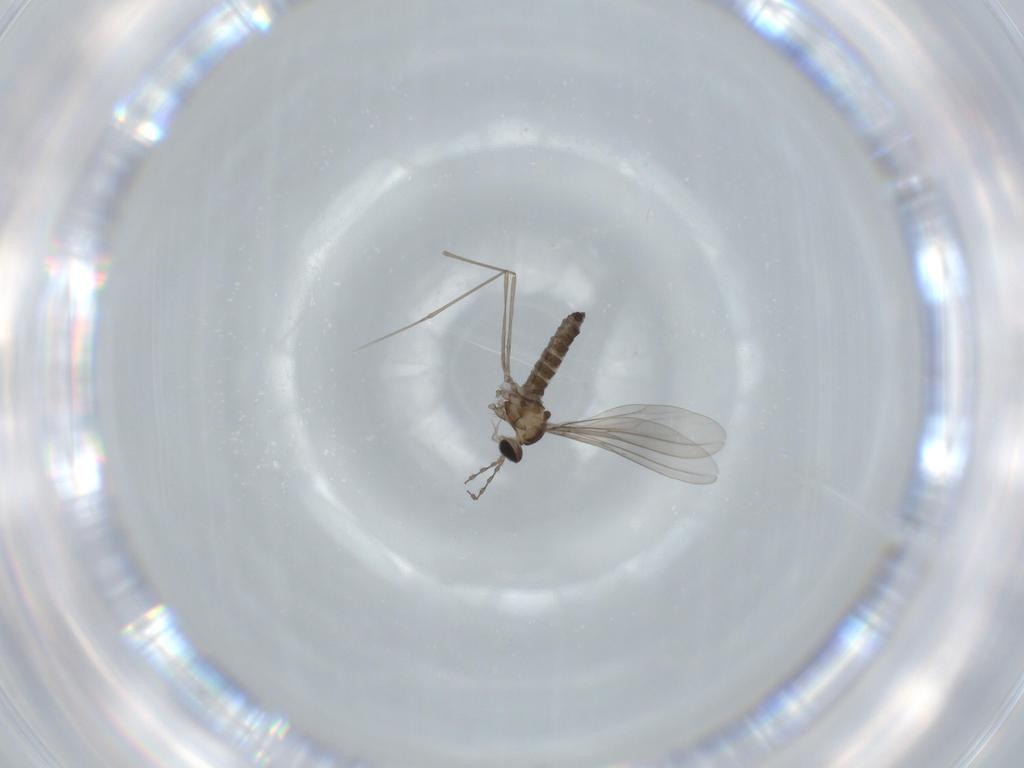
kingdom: Animalia
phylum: Arthropoda
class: Insecta
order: Diptera
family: Cecidomyiidae
